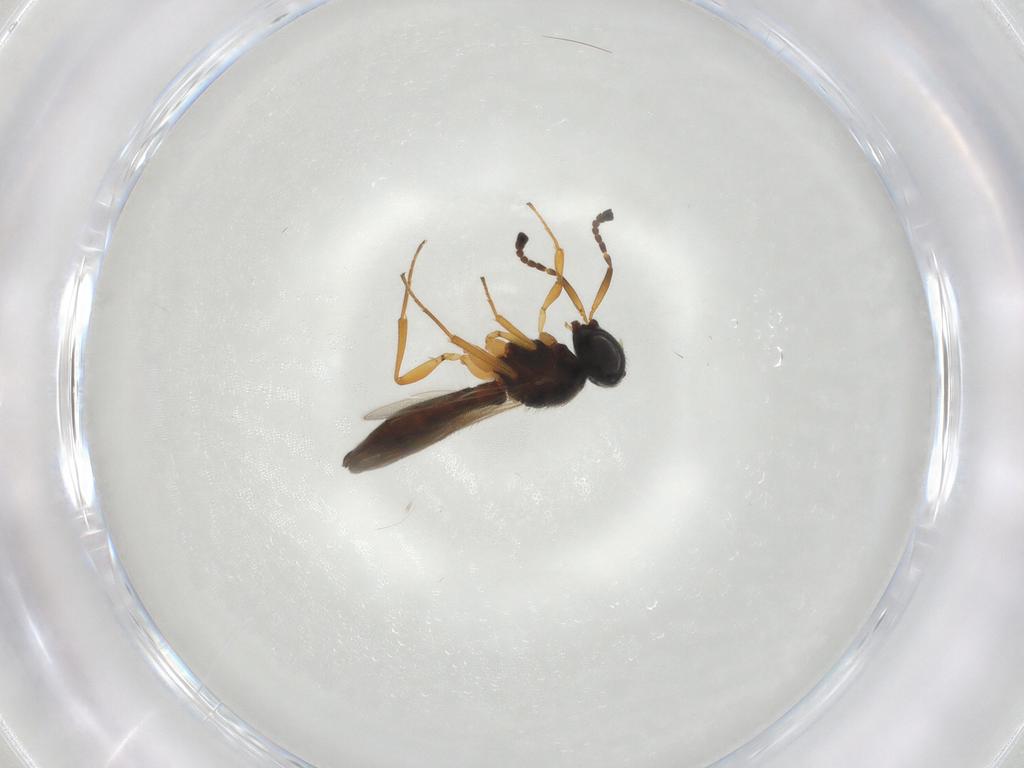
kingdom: Animalia
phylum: Arthropoda
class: Insecta
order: Hymenoptera
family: Scelionidae
